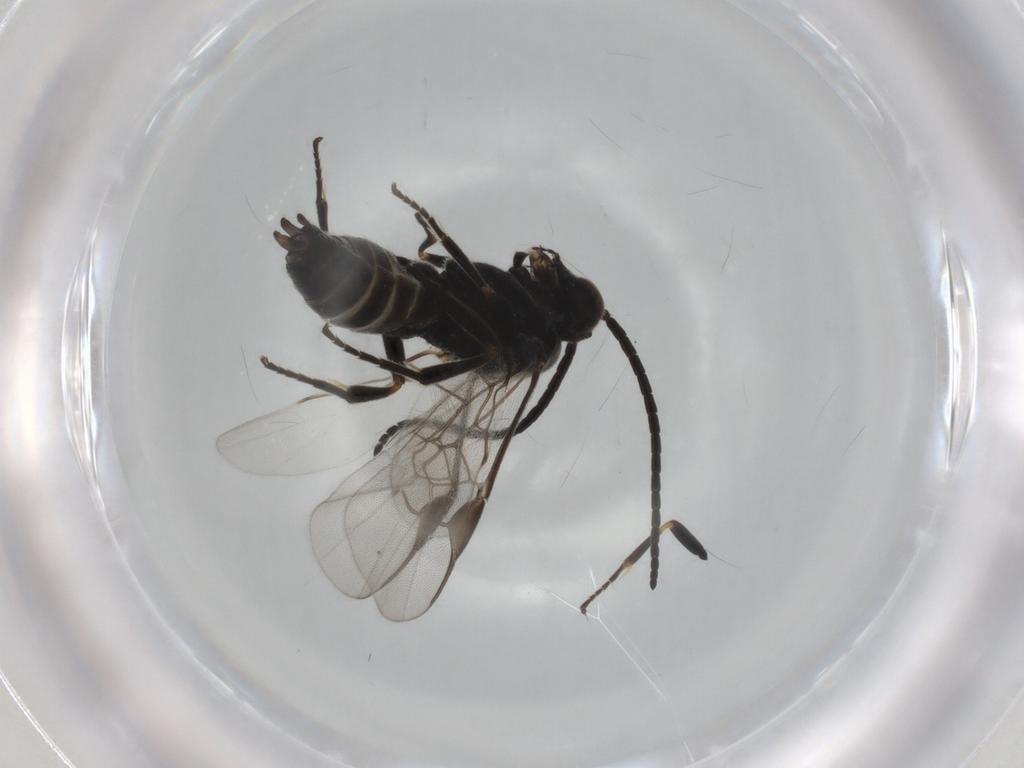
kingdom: Animalia
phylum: Arthropoda
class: Insecta
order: Hymenoptera
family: Braconidae
